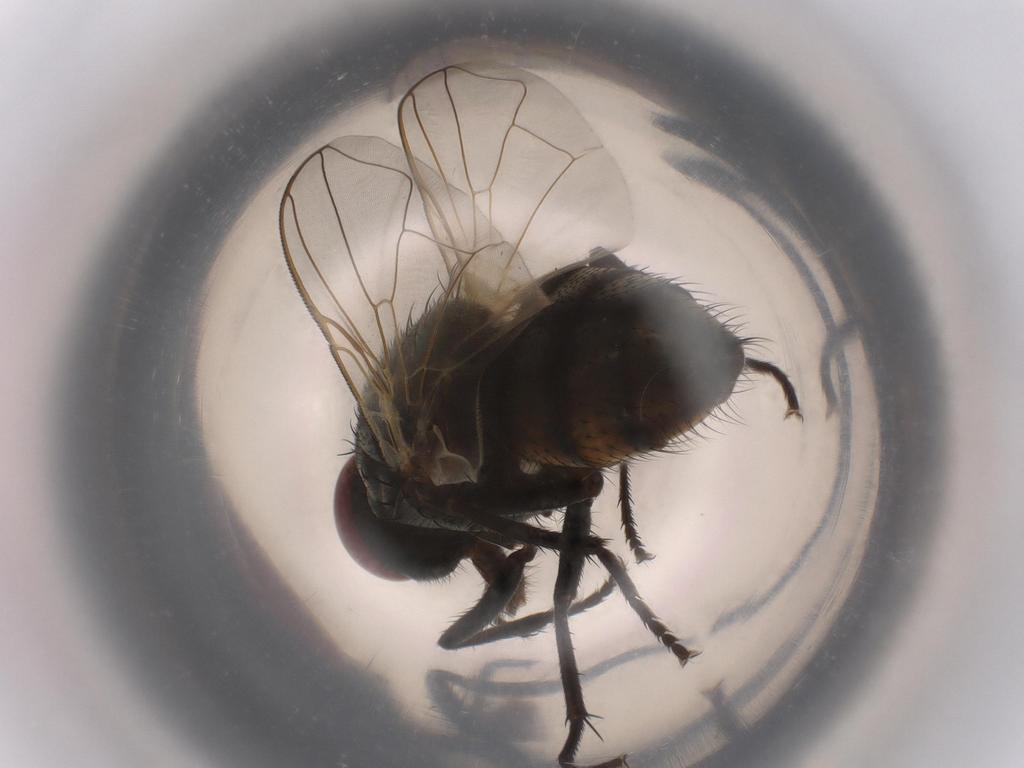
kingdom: Animalia
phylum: Arthropoda
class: Insecta
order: Diptera
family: Muscidae
